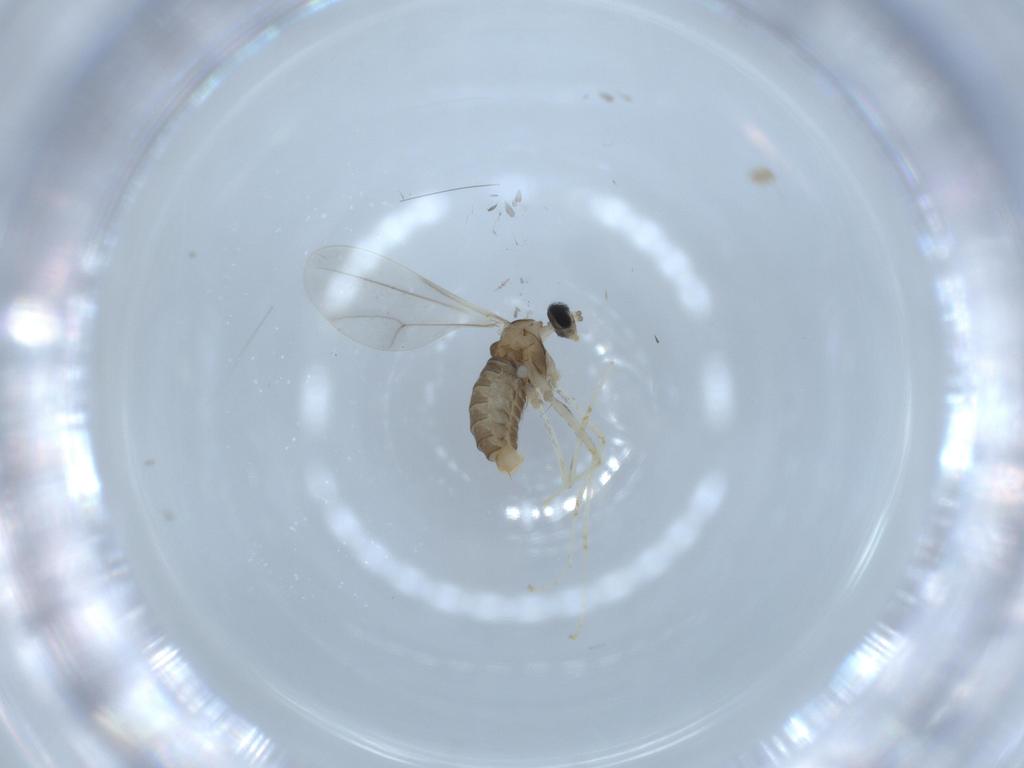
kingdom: Animalia
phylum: Arthropoda
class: Insecta
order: Diptera
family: Cecidomyiidae
